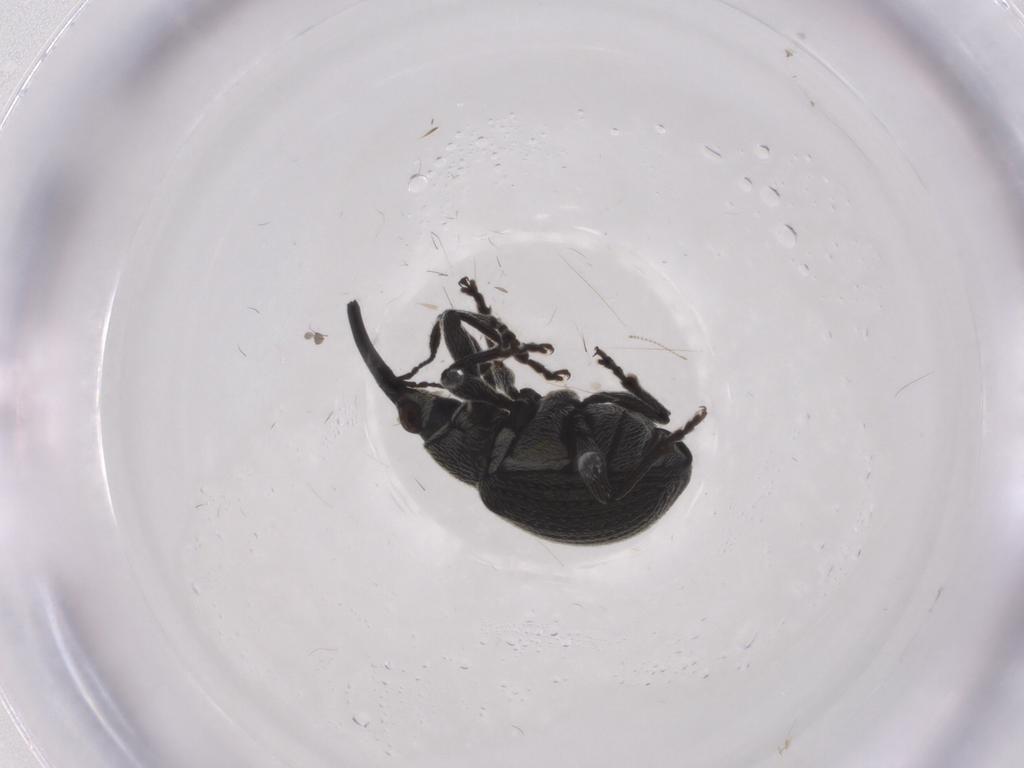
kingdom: Animalia
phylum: Arthropoda
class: Insecta
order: Coleoptera
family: Brentidae
